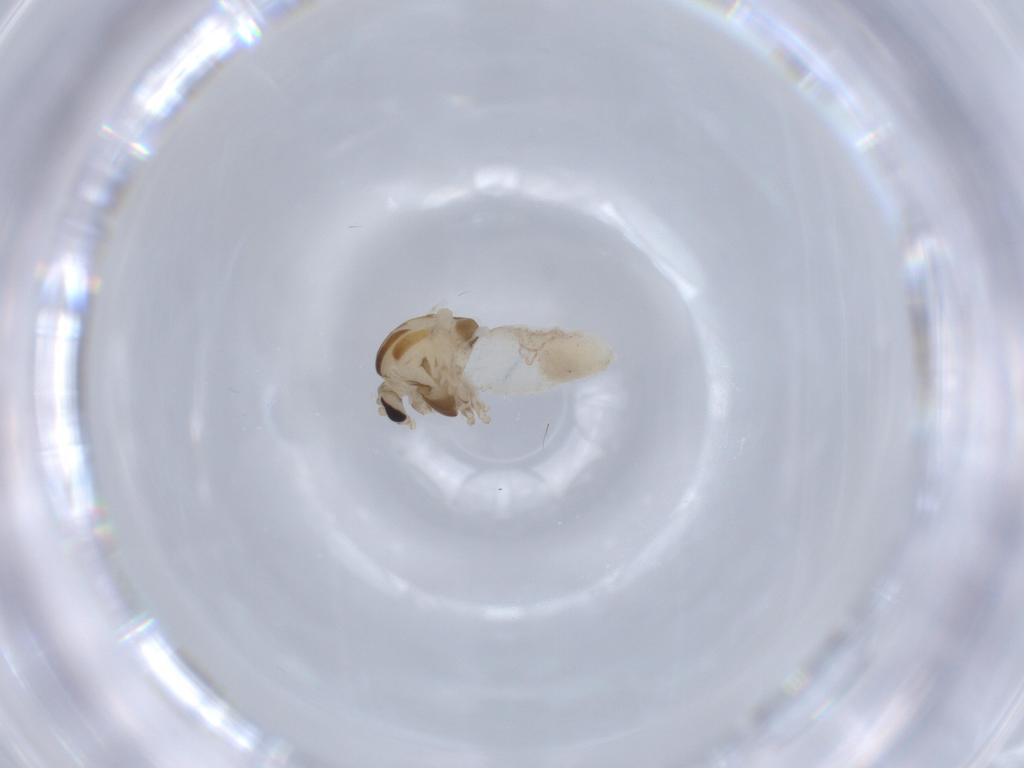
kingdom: Animalia
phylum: Arthropoda
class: Insecta
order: Diptera
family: Chironomidae
